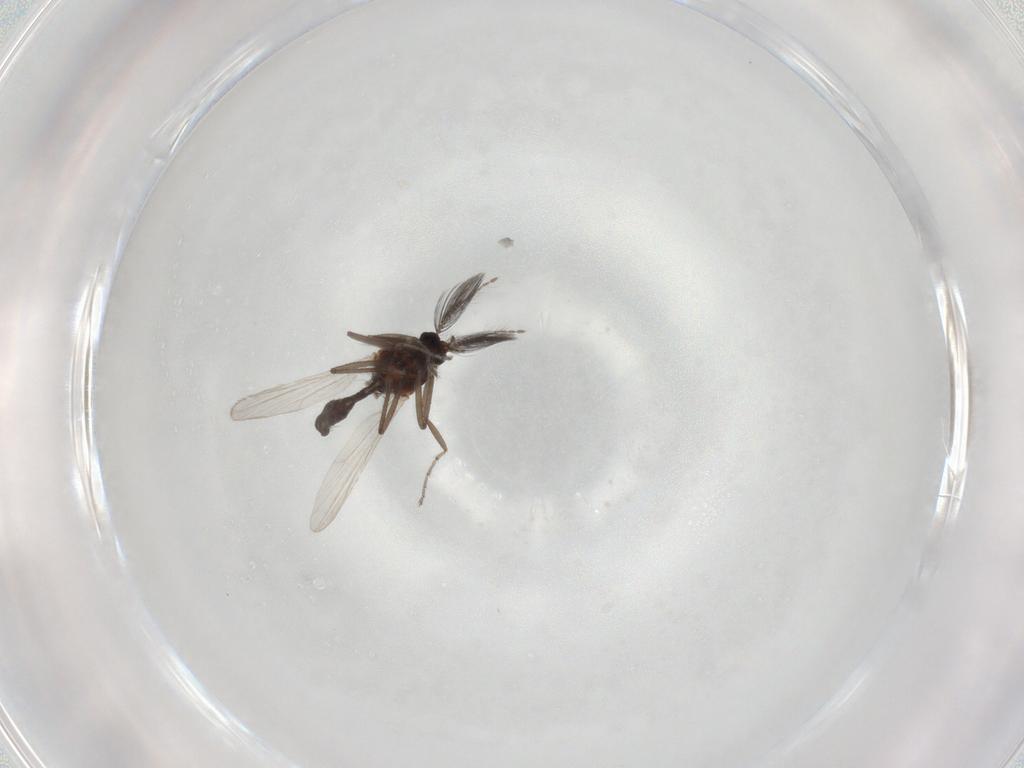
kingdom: Animalia
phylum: Arthropoda
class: Insecta
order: Diptera
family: Ceratopogonidae
